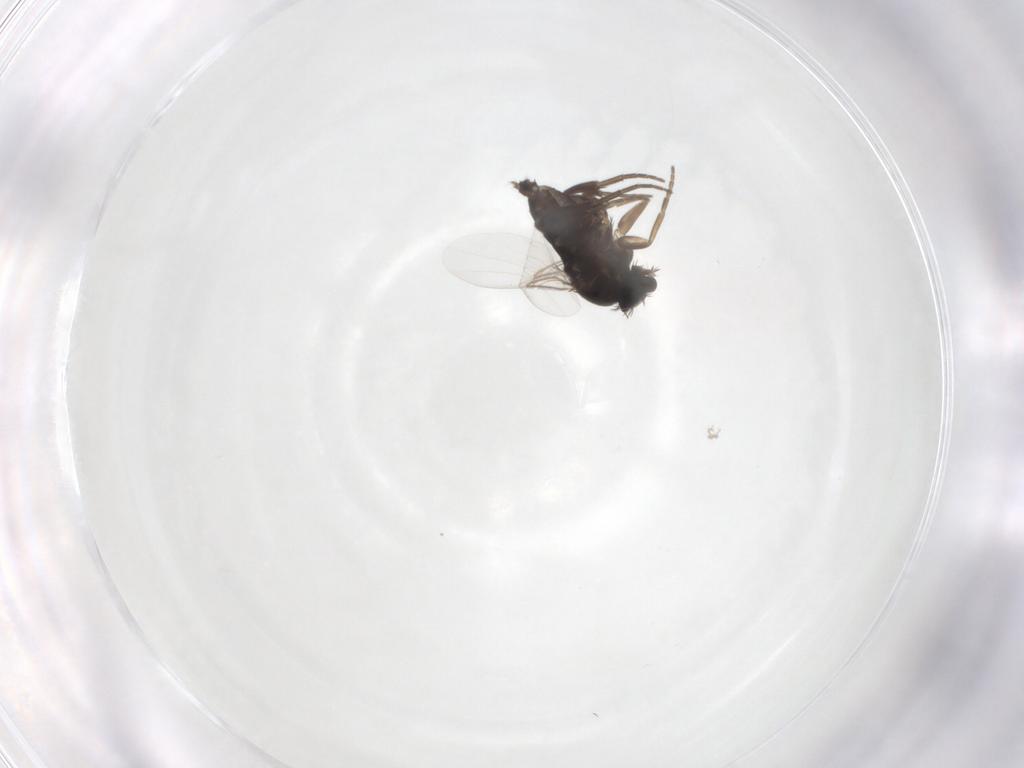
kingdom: Animalia
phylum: Arthropoda
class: Insecta
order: Diptera
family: Phoridae
